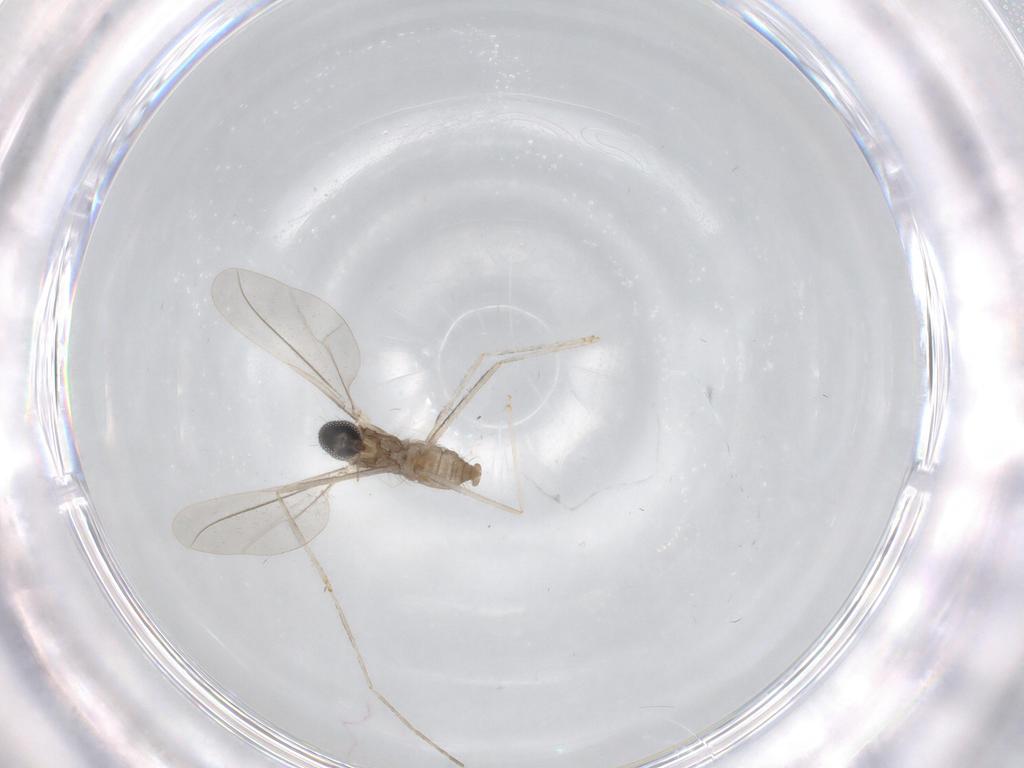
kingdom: Animalia
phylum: Arthropoda
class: Insecta
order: Diptera
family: Cecidomyiidae
